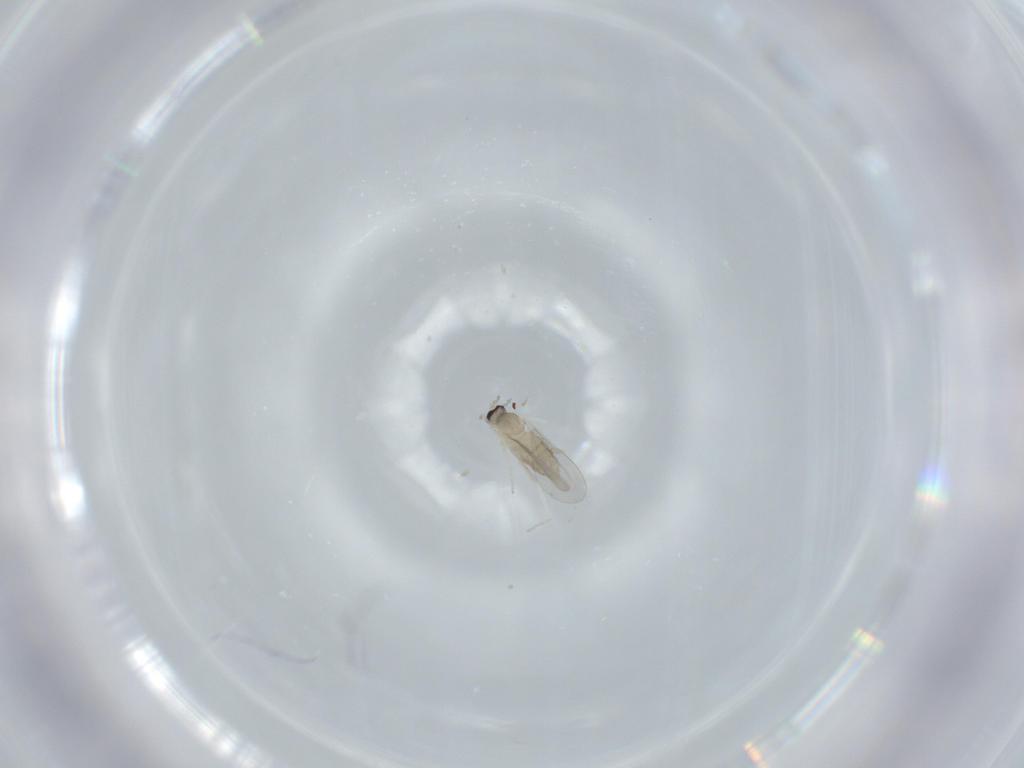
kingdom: Animalia
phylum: Arthropoda
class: Insecta
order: Diptera
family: Cecidomyiidae
